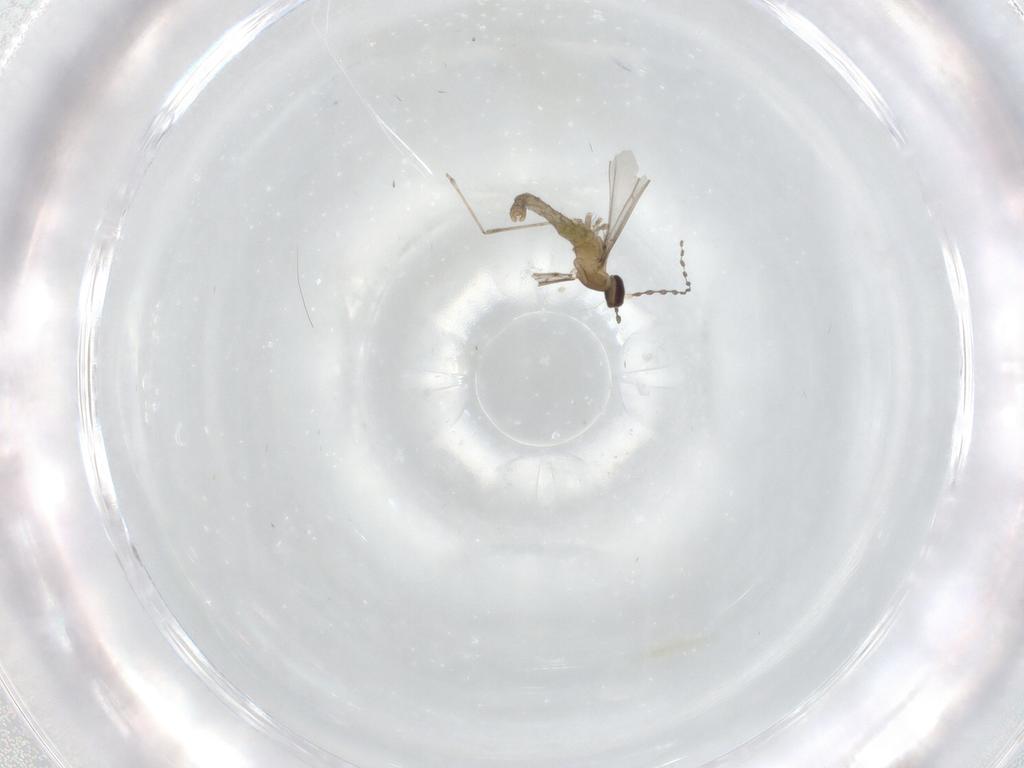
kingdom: Animalia
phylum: Arthropoda
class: Insecta
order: Diptera
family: Cecidomyiidae
